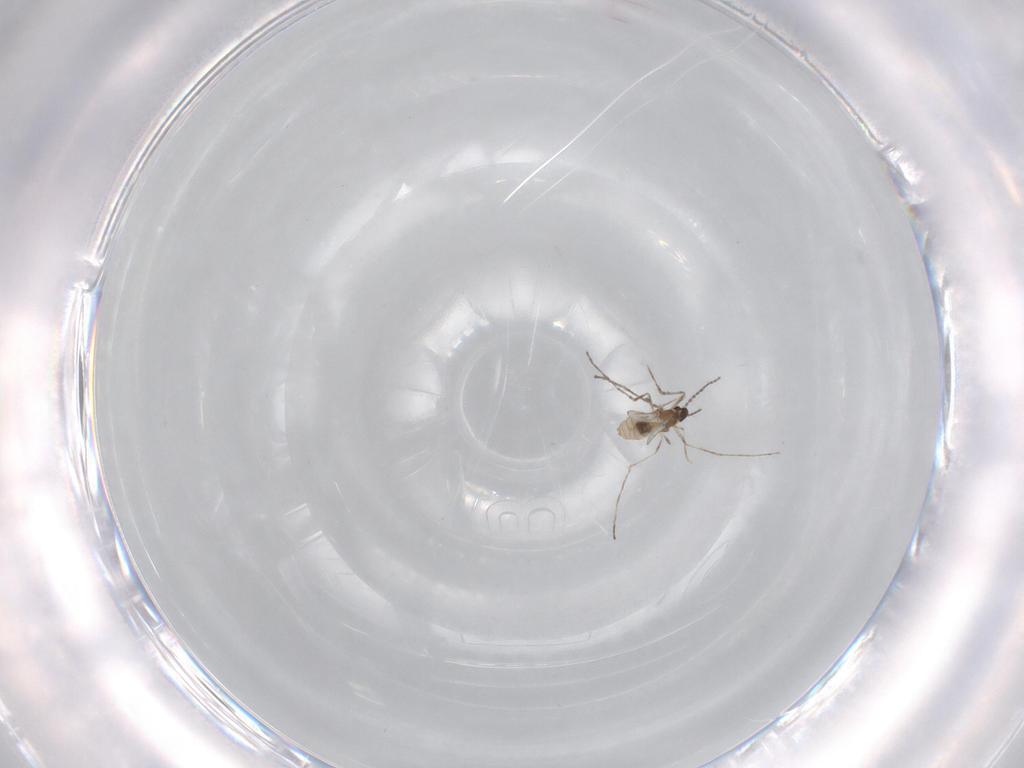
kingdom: Animalia
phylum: Arthropoda
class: Insecta
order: Diptera
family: Cecidomyiidae
